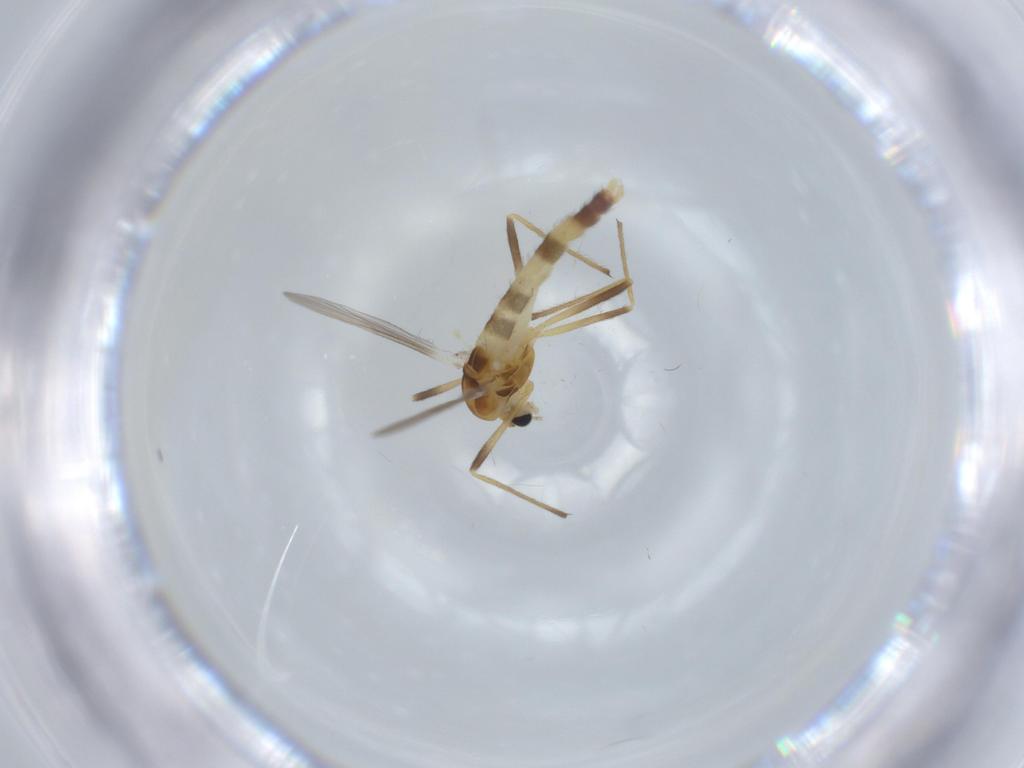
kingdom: Animalia
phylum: Arthropoda
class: Insecta
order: Diptera
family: Chironomidae
